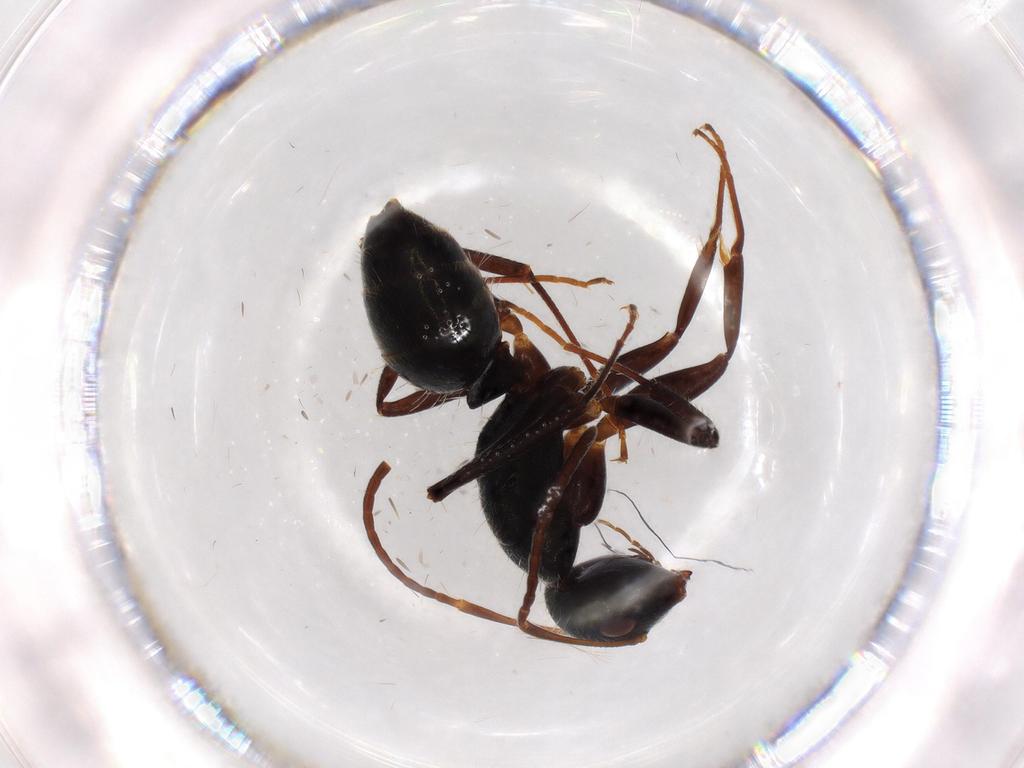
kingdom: Animalia
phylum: Arthropoda
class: Insecta
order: Hymenoptera
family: Formicidae
